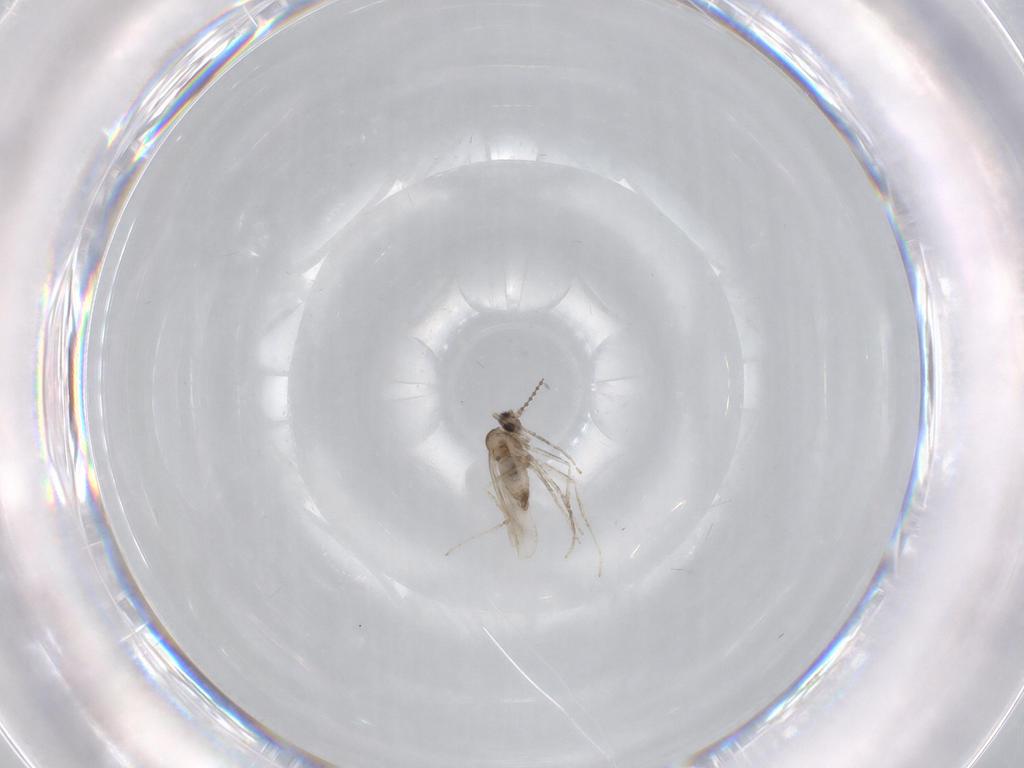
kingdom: Animalia
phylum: Arthropoda
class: Insecta
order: Diptera
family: Cecidomyiidae
